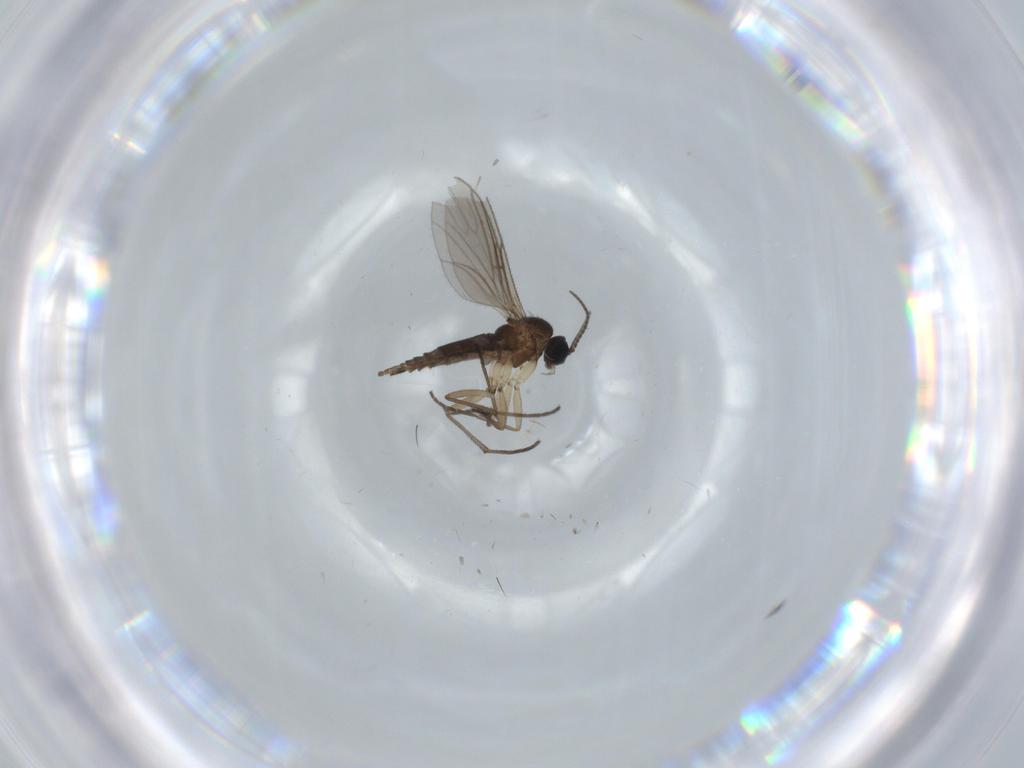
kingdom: Animalia
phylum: Arthropoda
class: Insecta
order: Diptera
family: Sciaridae
